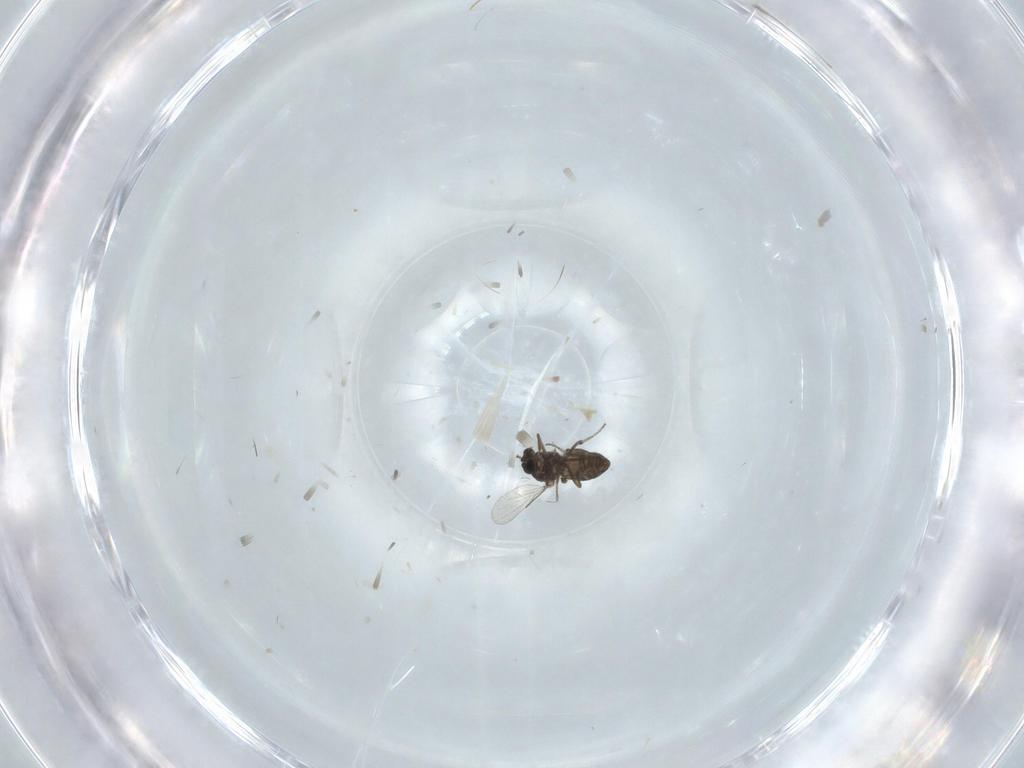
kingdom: Animalia
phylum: Arthropoda
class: Insecta
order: Diptera
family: Ceratopogonidae
